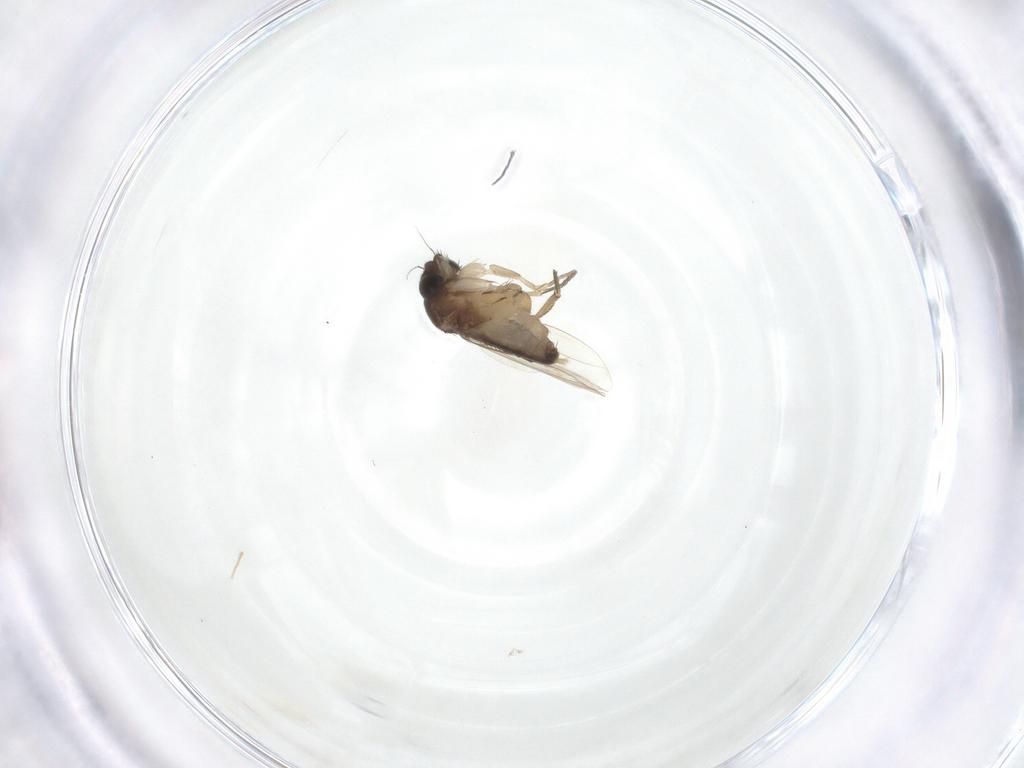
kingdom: Animalia
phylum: Arthropoda
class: Insecta
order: Diptera
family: Phoridae
